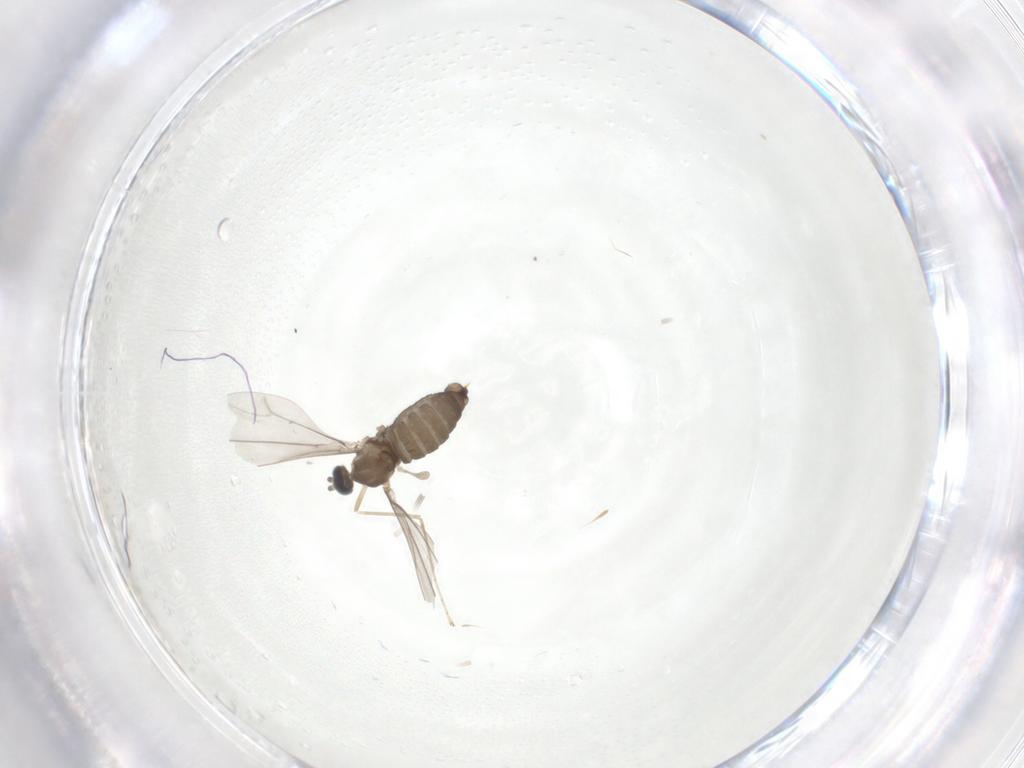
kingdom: Animalia
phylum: Arthropoda
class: Insecta
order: Diptera
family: Cecidomyiidae
